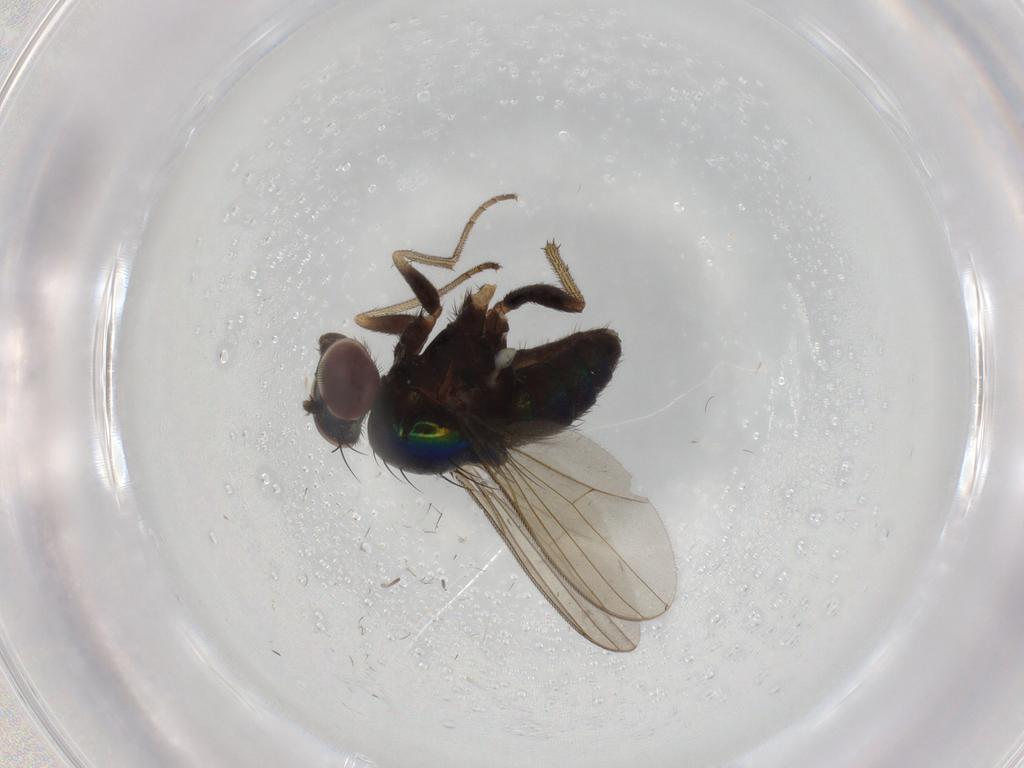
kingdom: Animalia
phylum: Arthropoda
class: Insecta
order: Diptera
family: Dolichopodidae
